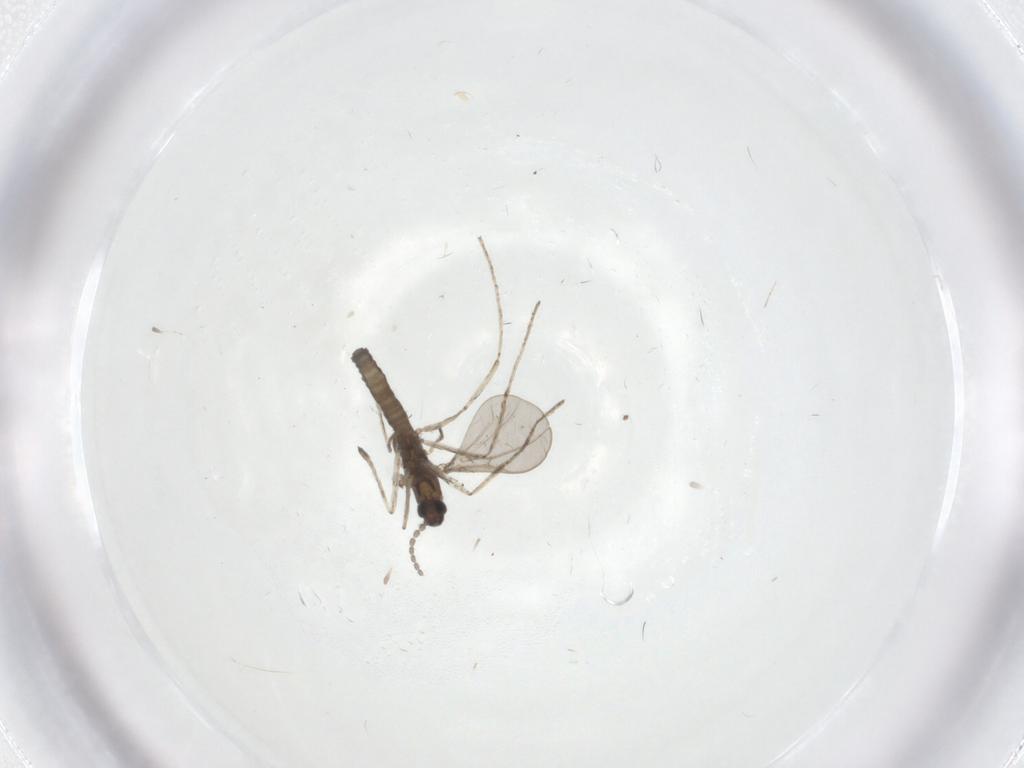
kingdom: Animalia
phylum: Arthropoda
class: Insecta
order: Diptera
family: Cecidomyiidae
